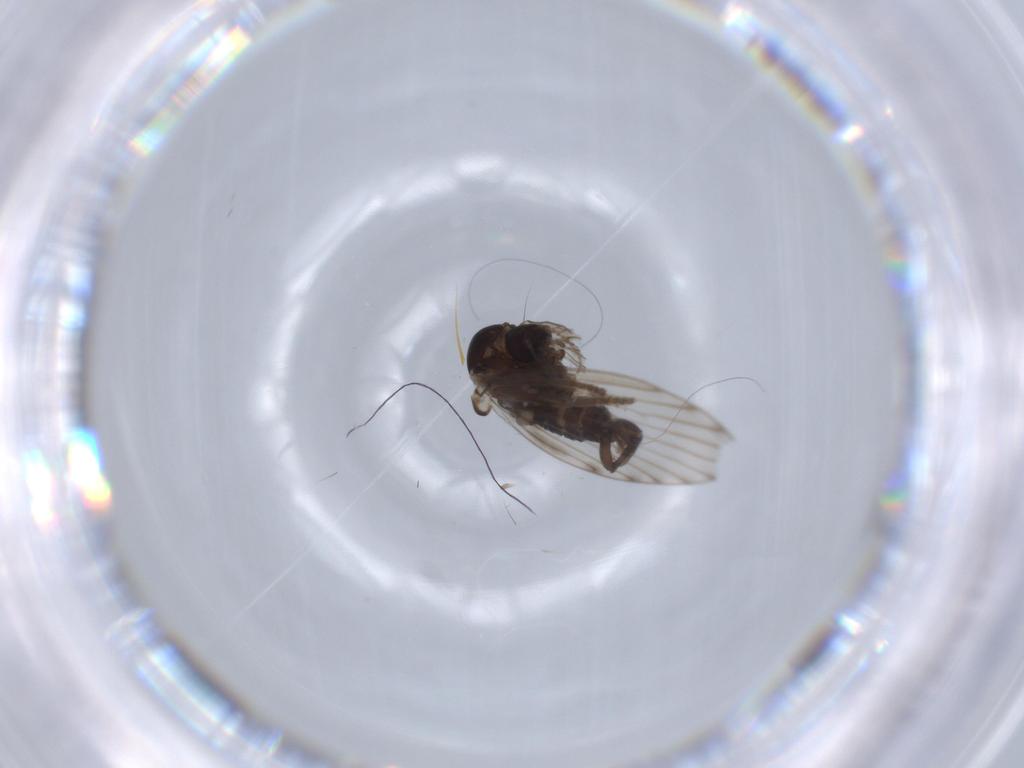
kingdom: Animalia
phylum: Arthropoda
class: Insecta
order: Diptera
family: Psychodidae
